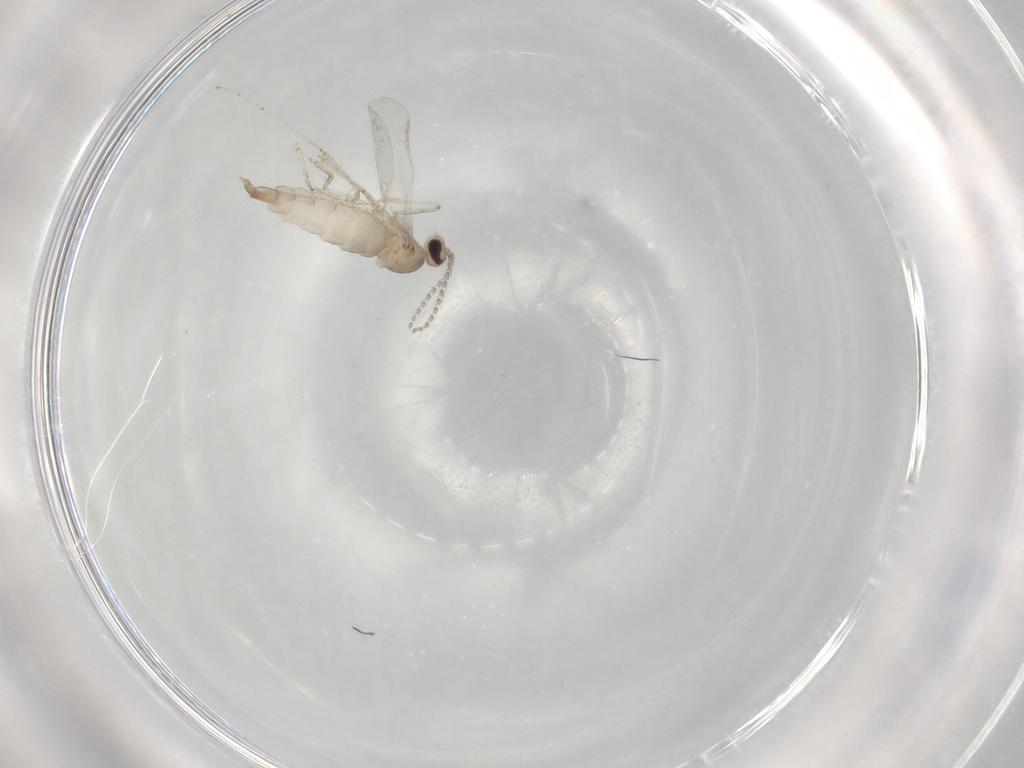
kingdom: Animalia
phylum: Arthropoda
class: Insecta
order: Diptera
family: Cecidomyiidae
